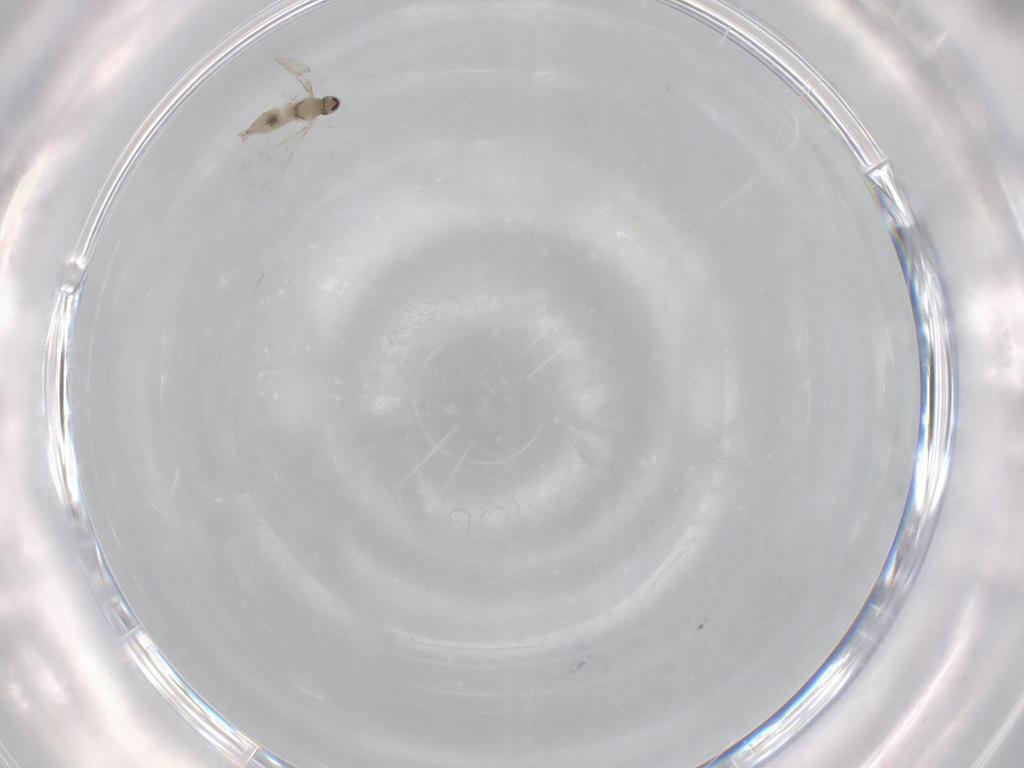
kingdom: Animalia
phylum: Arthropoda
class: Insecta
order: Diptera
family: Cecidomyiidae
